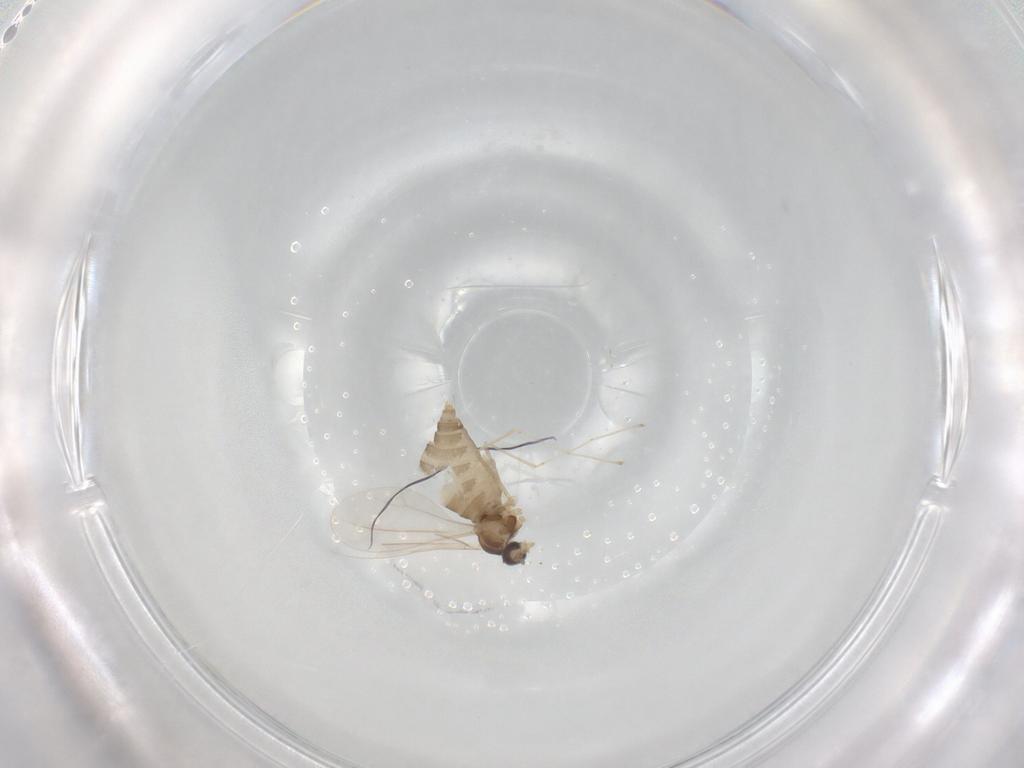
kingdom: Animalia
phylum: Arthropoda
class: Insecta
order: Diptera
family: Cecidomyiidae
